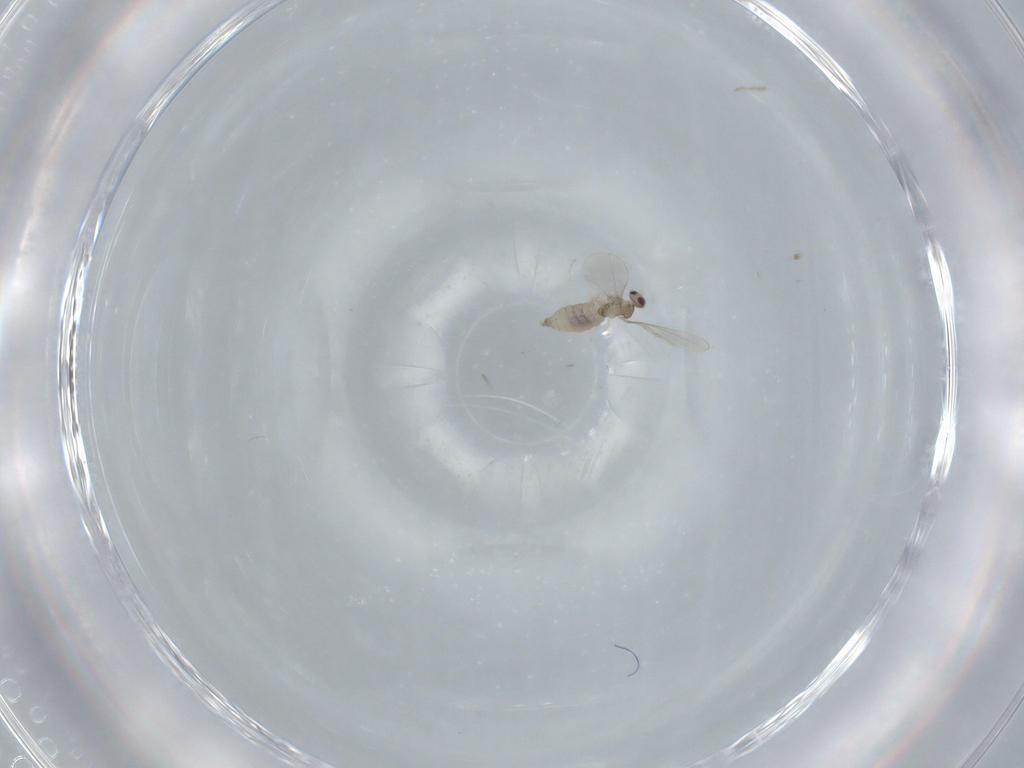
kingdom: Animalia
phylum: Arthropoda
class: Insecta
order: Diptera
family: Cecidomyiidae
